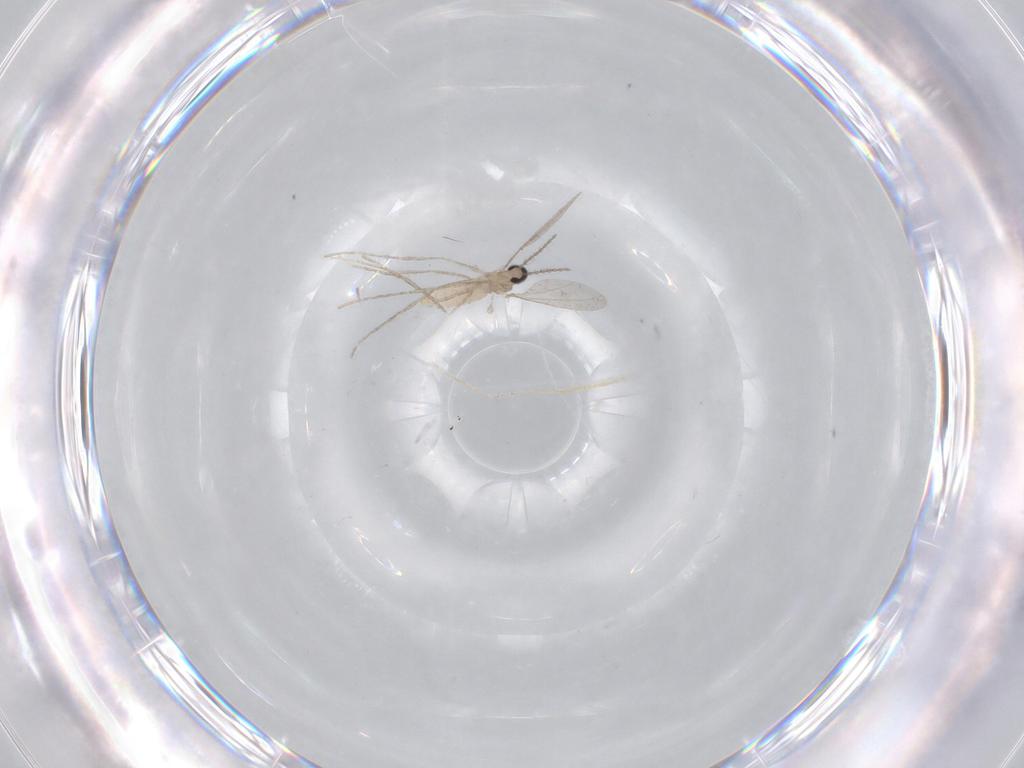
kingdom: Animalia
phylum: Arthropoda
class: Insecta
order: Diptera
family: Cecidomyiidae
